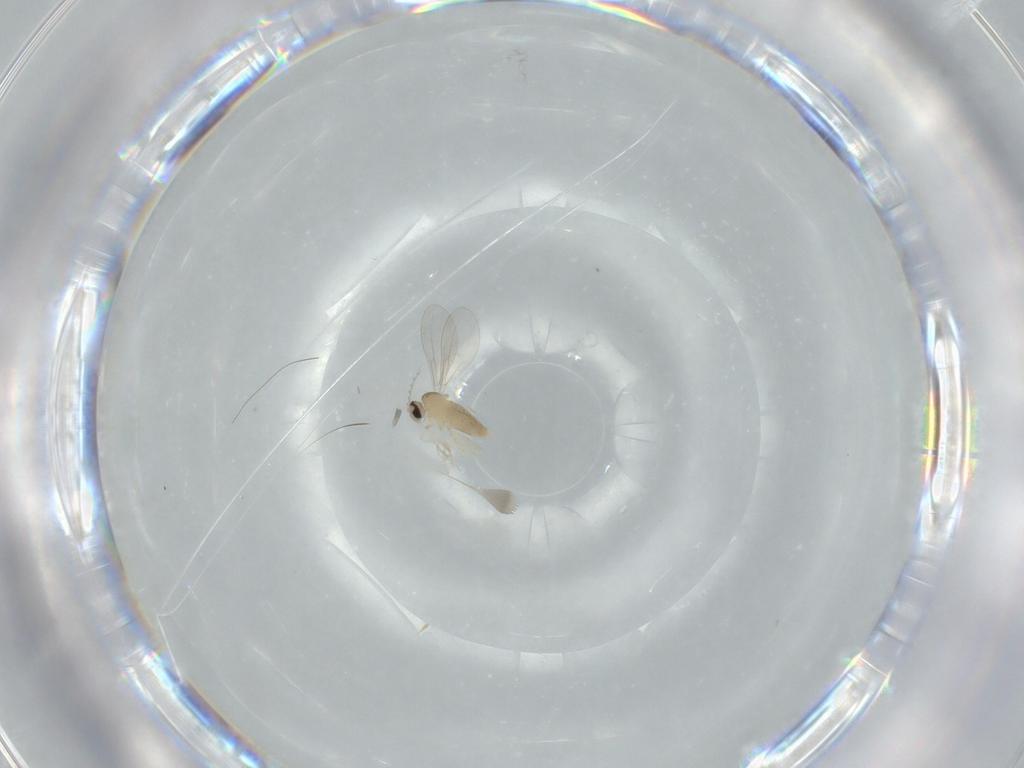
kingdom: Animalia
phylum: Arthropoda
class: Insecta
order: Diptera
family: Cecidomyiidae
